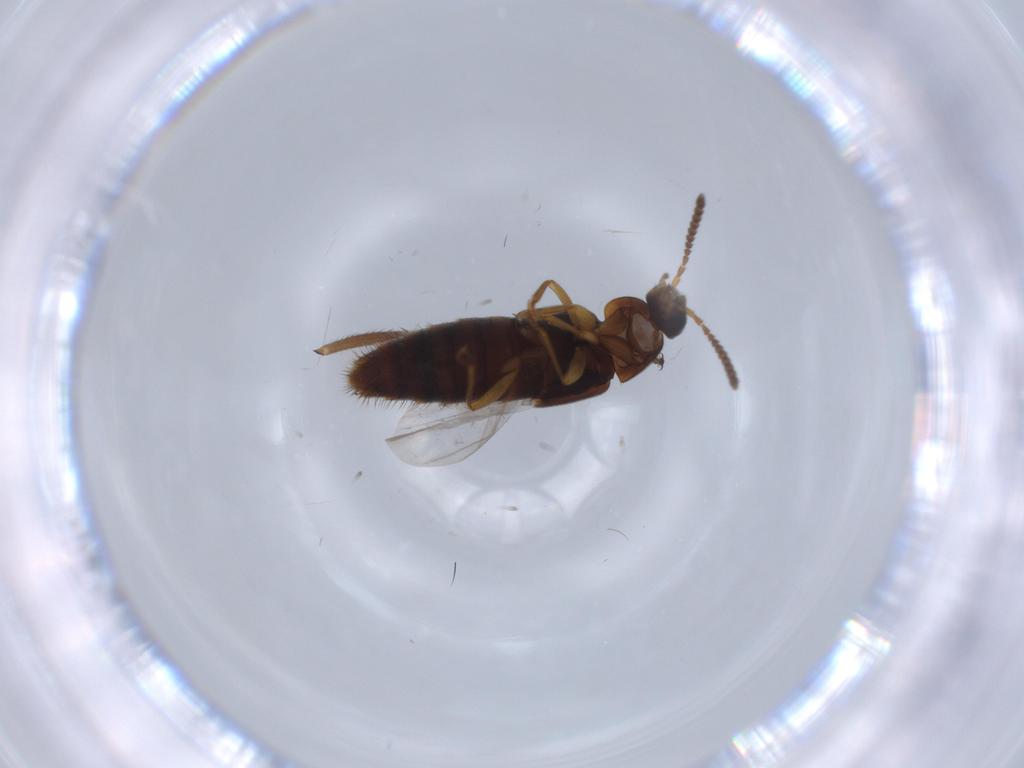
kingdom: Animalia
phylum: Arthropoda
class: Insecta
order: Coleoptera
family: Staphylinidae
